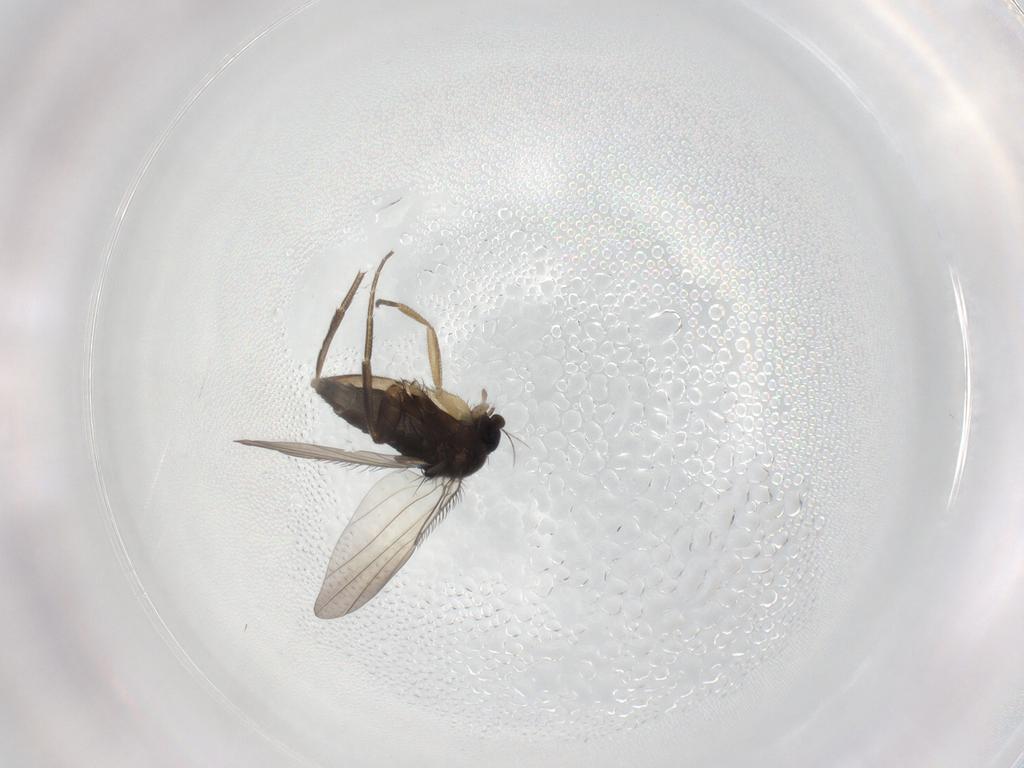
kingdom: Animalia
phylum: Arthropoda
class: Insecta
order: Diptera
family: Phoridae
